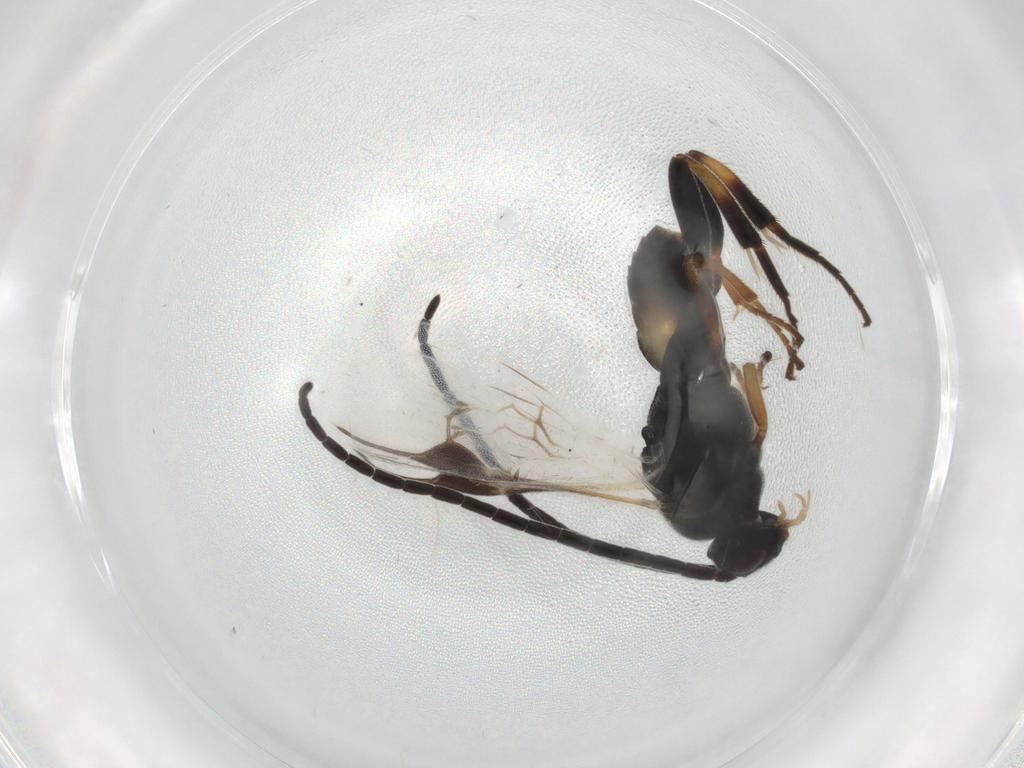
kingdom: Animalia
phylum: Arthropoda
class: Insecta
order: Hymenoptera
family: Braconidae
